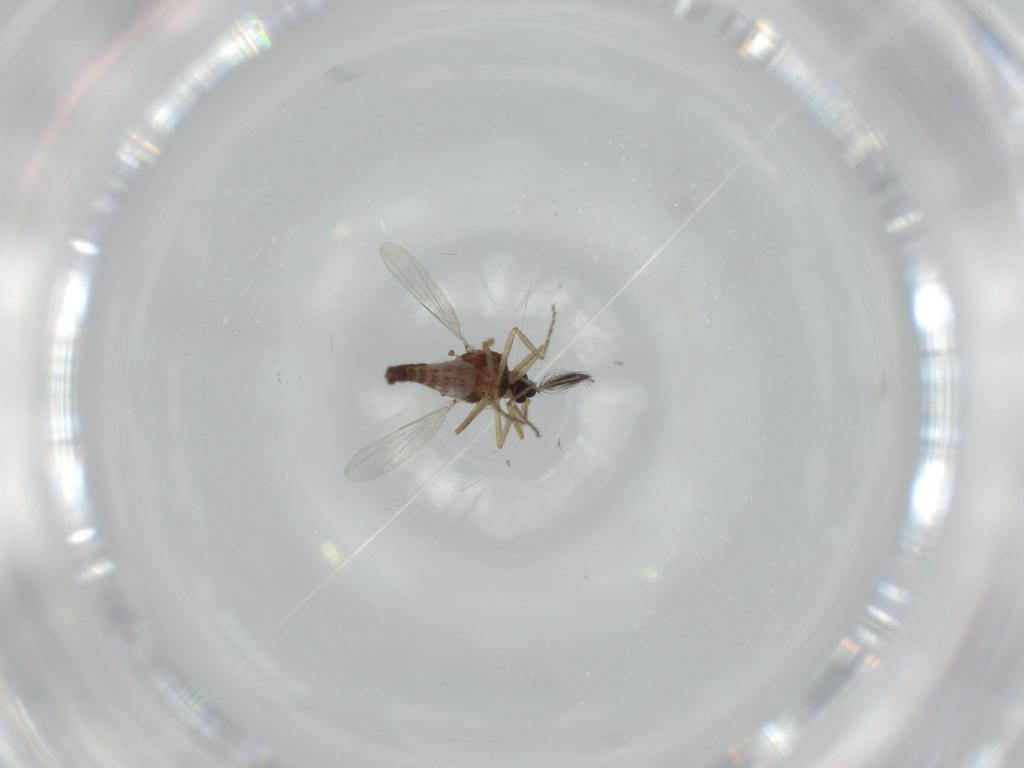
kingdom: Animalia
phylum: Arthropoda
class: Insecta
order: Diptera
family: Ceratopogonidae
